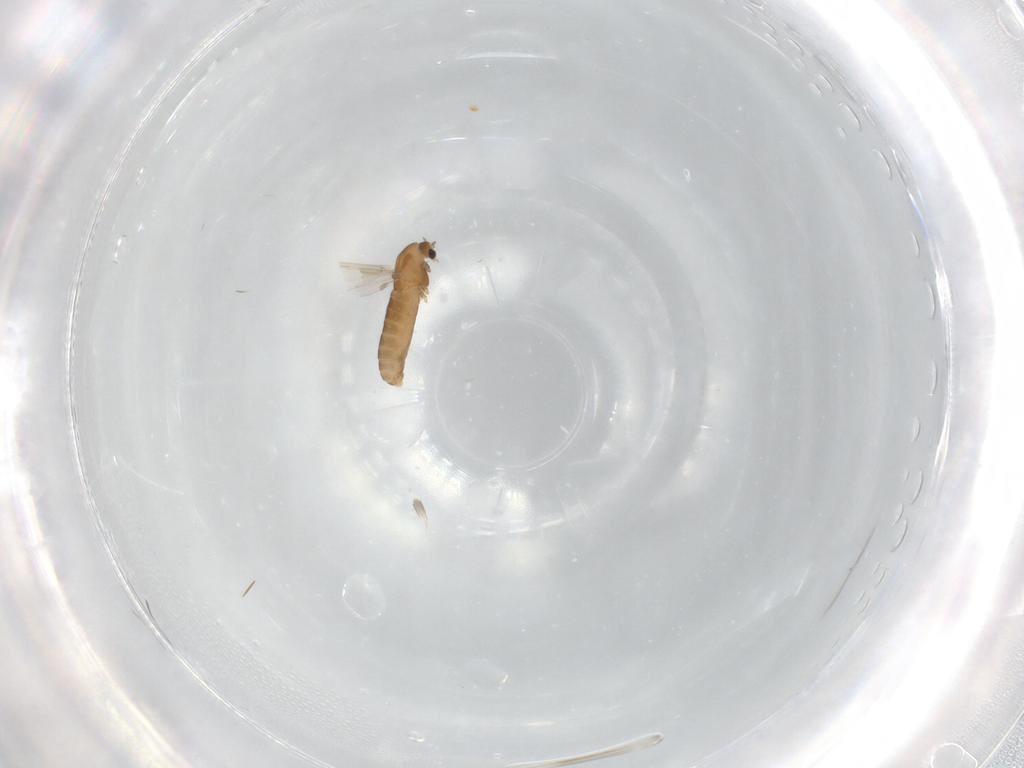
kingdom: Animalia
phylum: Arthropoda
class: Insecta
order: Diptera
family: Chironomidae
